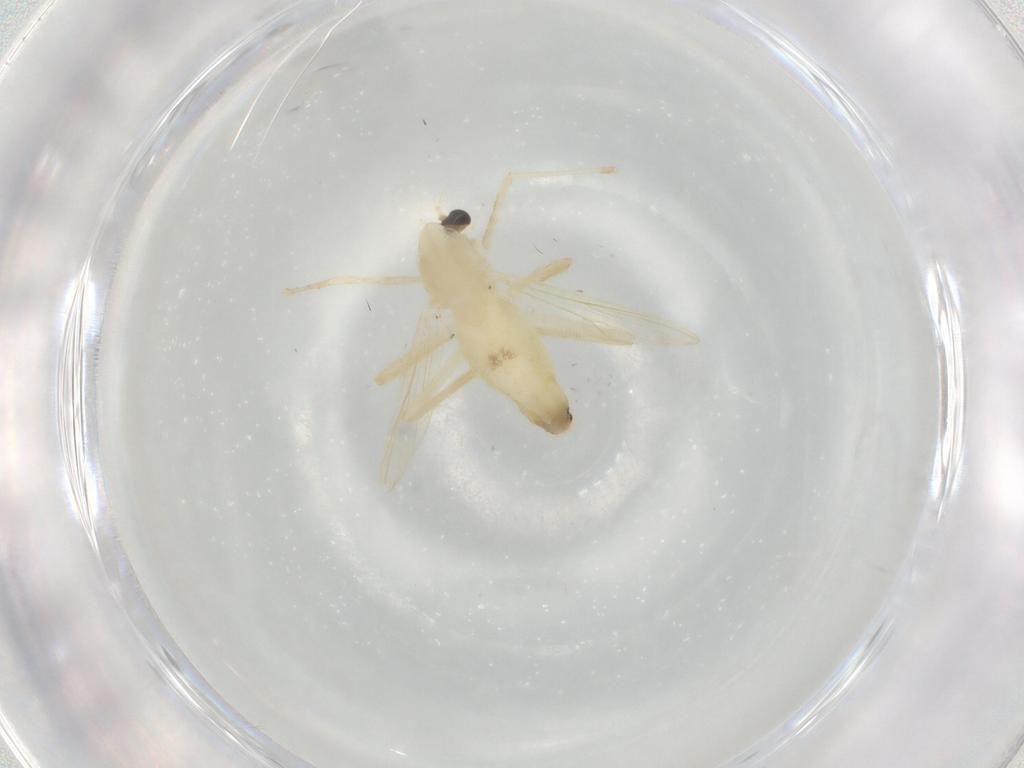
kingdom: Animalia
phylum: Arthropoda
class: Insecta
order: Diptera
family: Chironomidae
